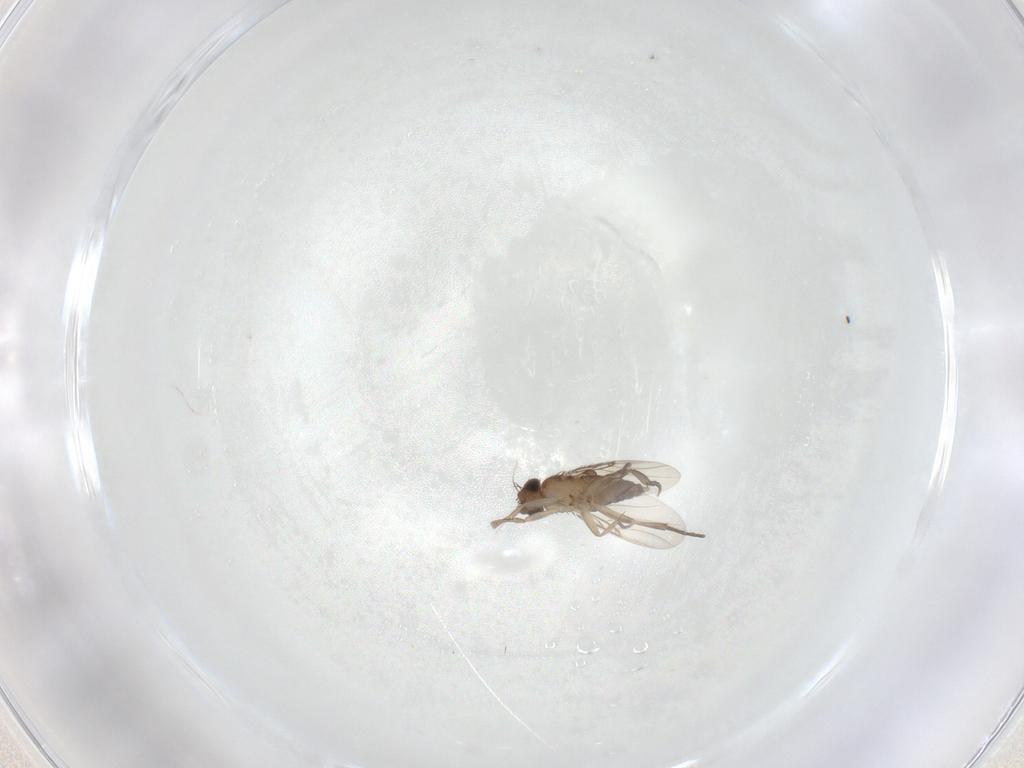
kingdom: Animalia
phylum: Arthropoda
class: Insecta
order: Diptera
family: Phoridae
